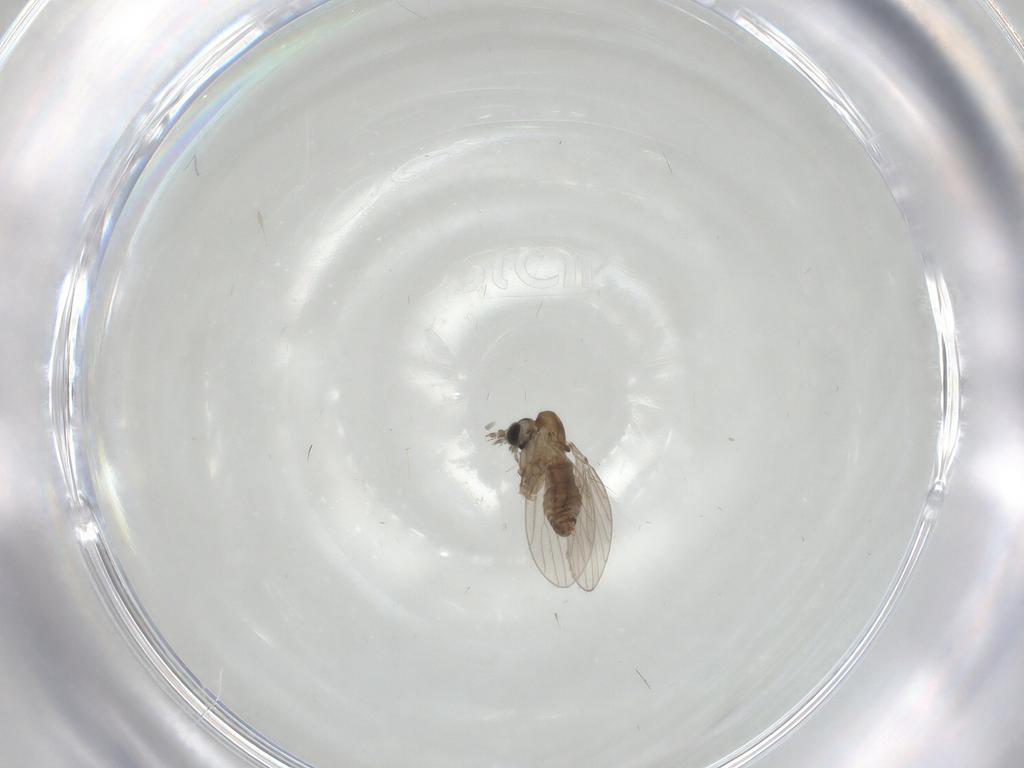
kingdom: Animalia
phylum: Arthropoda
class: Insecta
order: Diptera
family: Psychodidae
